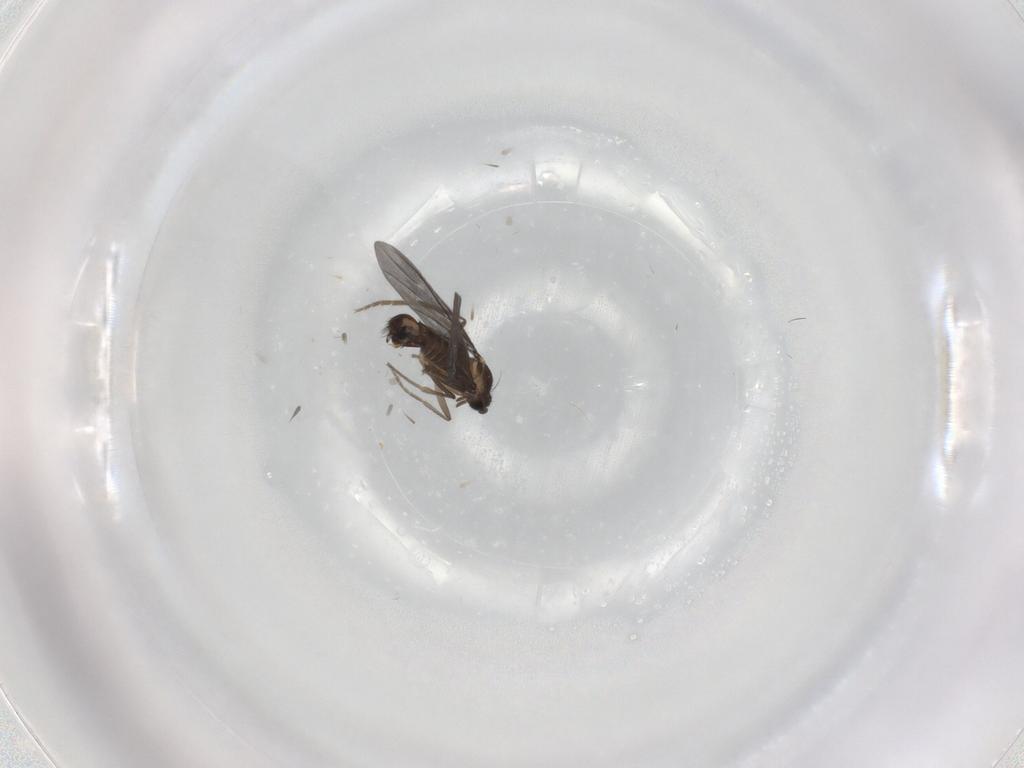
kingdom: Animalia
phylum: Arthropoda
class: Insecta
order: Diptera
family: Phoridae
